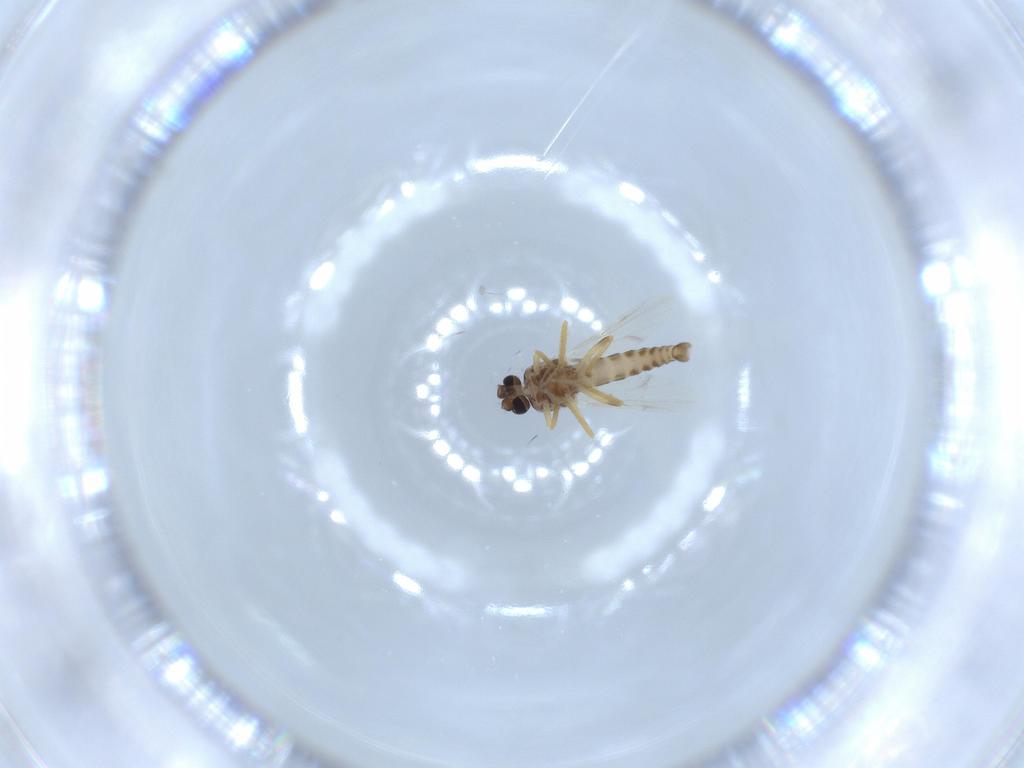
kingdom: Animalia
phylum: Arthropoda
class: Insecta
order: Diptera
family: Ceratopogonidae
